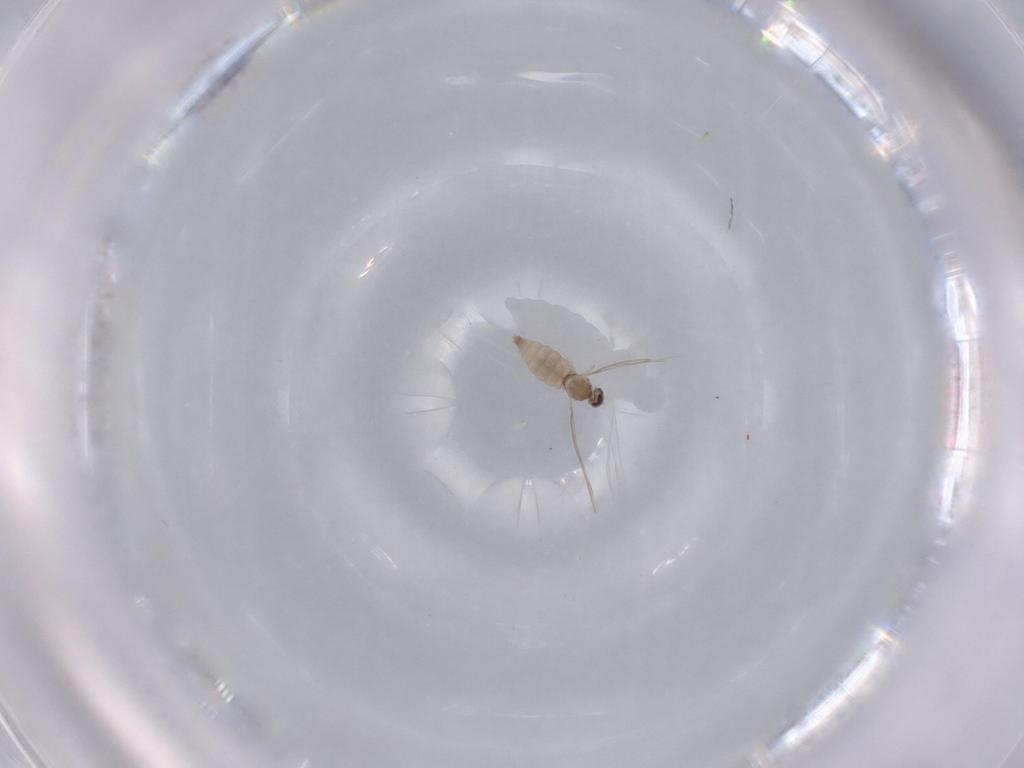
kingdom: Animalia
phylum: Arthropoda
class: Insecta
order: Diptera
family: Cecidomyiidae
